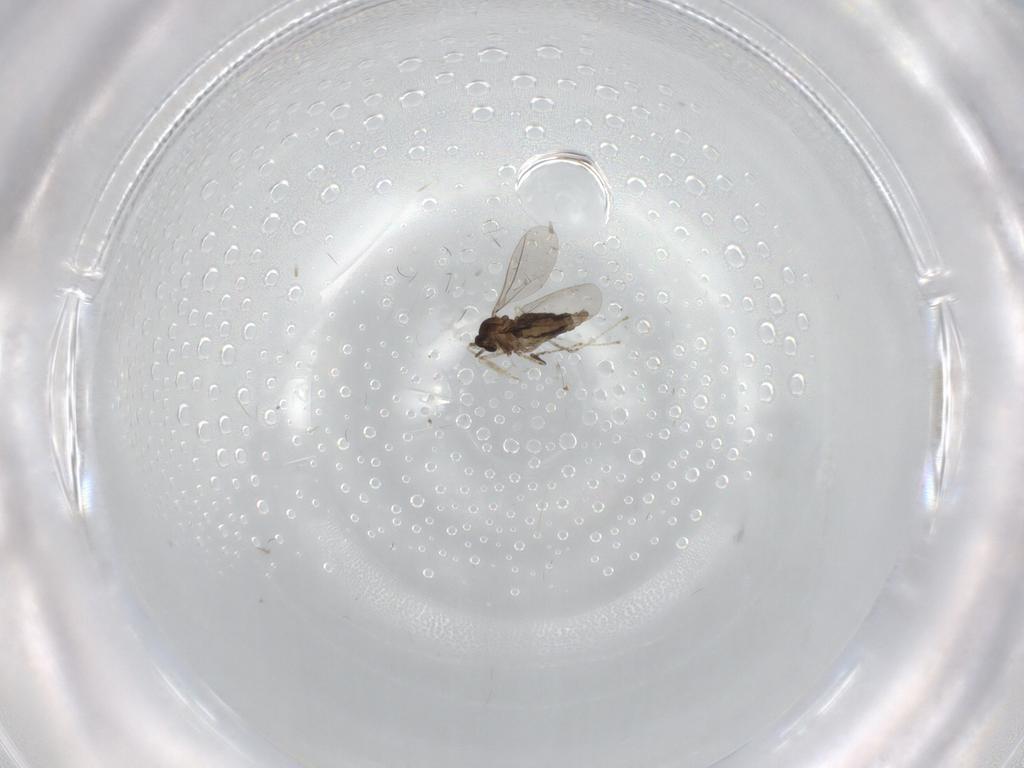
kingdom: Animalia
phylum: Arthropoda
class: Insecta
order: Diptera
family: Cecidomyiidae
